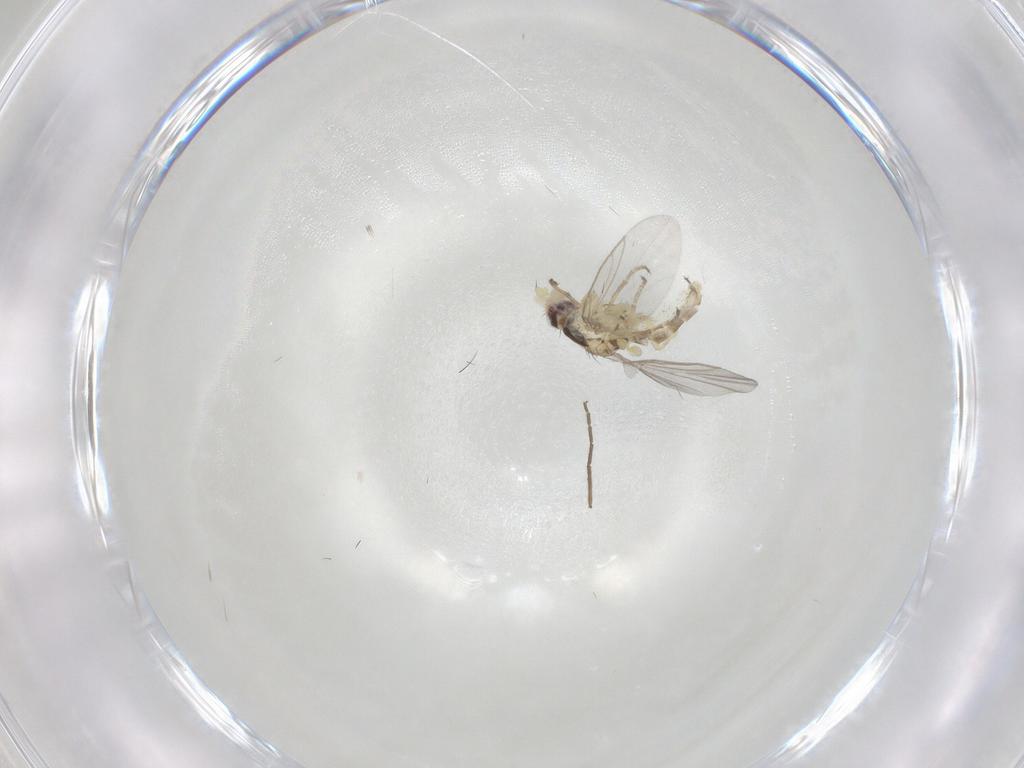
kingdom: Animalia
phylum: Arthropoda
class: Insecta
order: Diptera
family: Chironomidae
